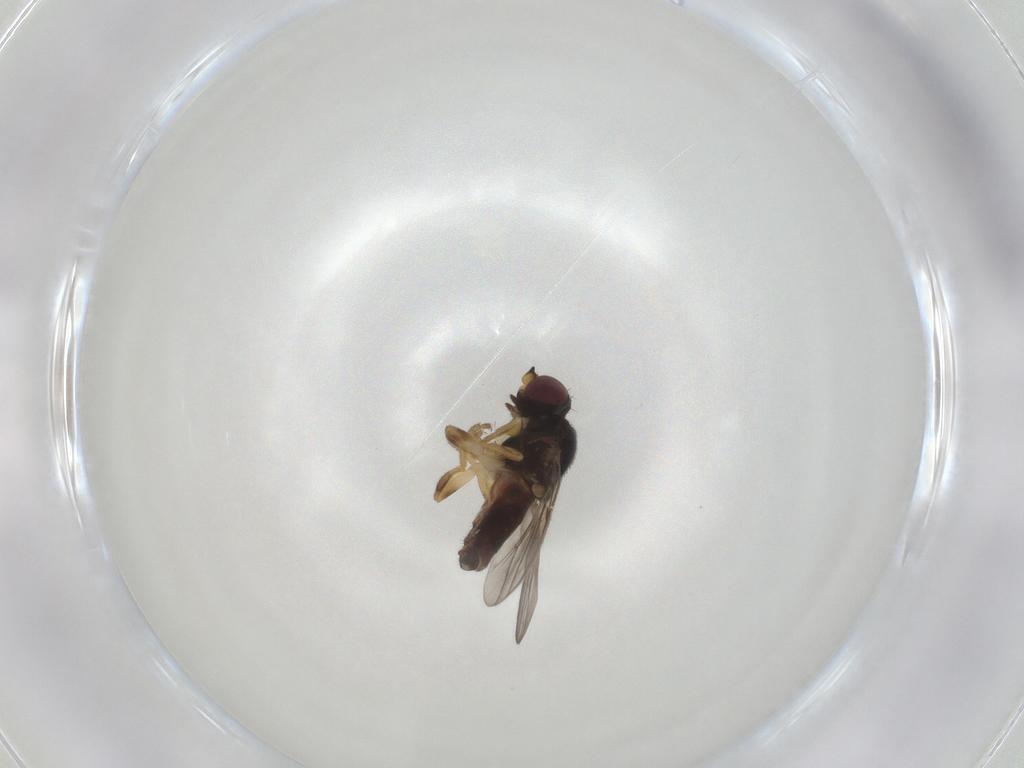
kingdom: Animalia
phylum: Arthropoda
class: Insecta
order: Diptera
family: Chloropidae
